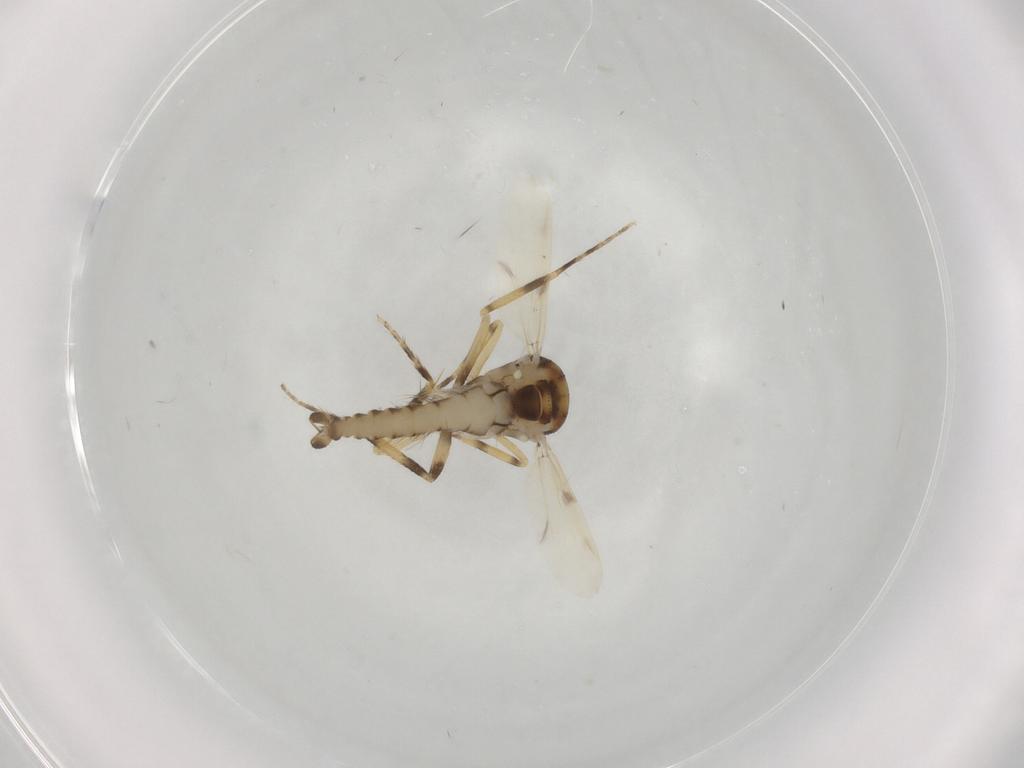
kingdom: Animalia
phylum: Arthropoda
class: Insecta
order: Diptera
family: Ceratopogonidae
